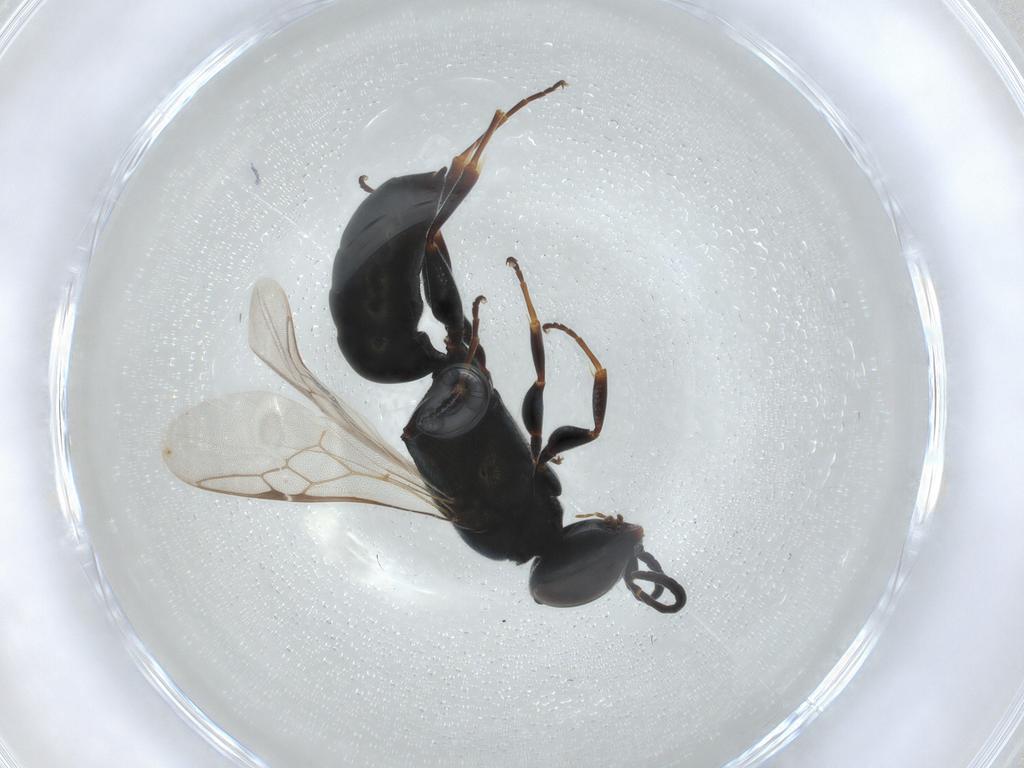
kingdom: Animalia
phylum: Arthropoda
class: Insecta
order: Hymenoptera
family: Crabronidae
